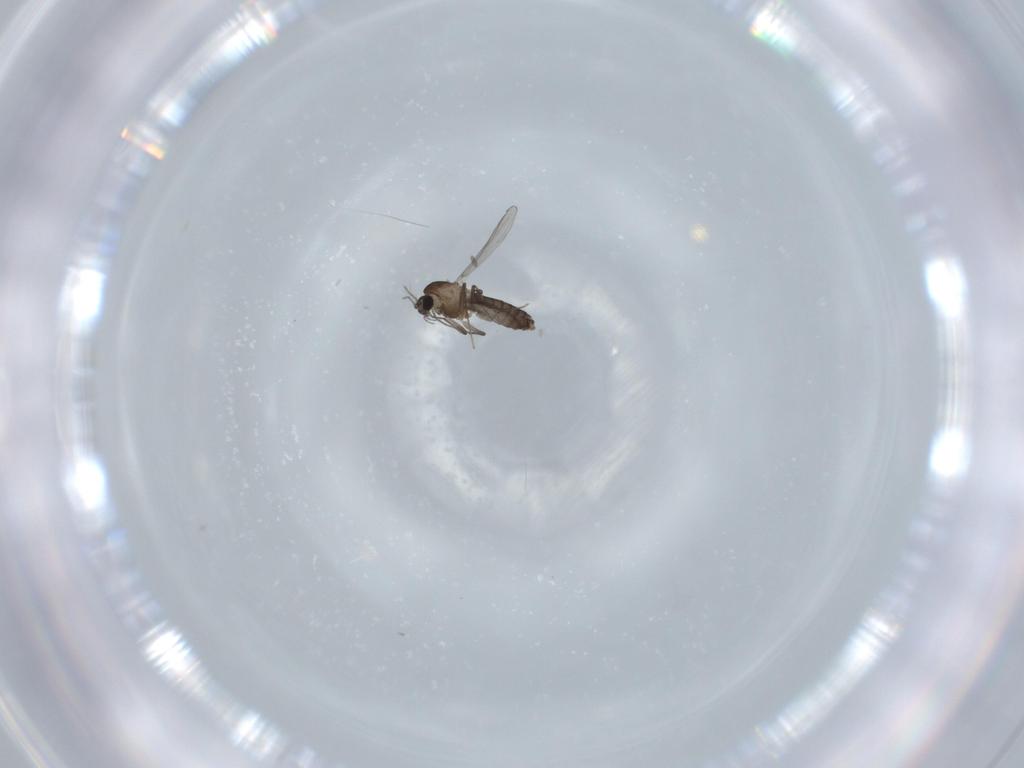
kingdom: Animalia
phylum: Arthropoda
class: Insecta
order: Diptera
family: Chironomidae
